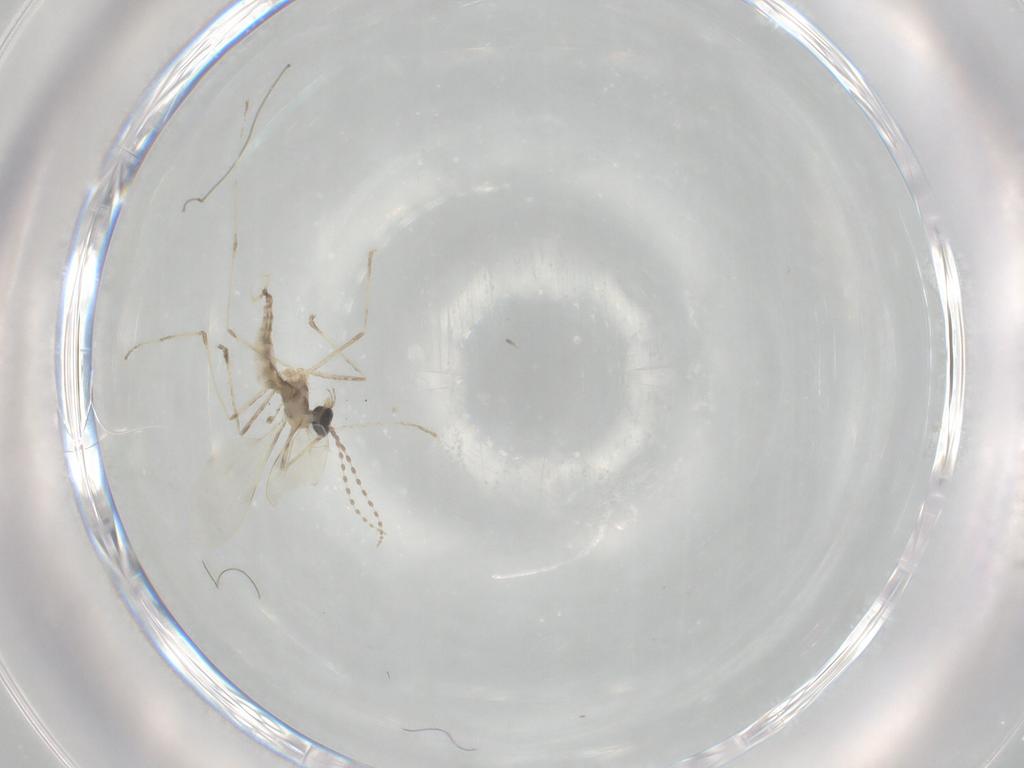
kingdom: Animalia
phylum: Arthropoda
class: Insecta
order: Diptera
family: Cecidomyiidae
